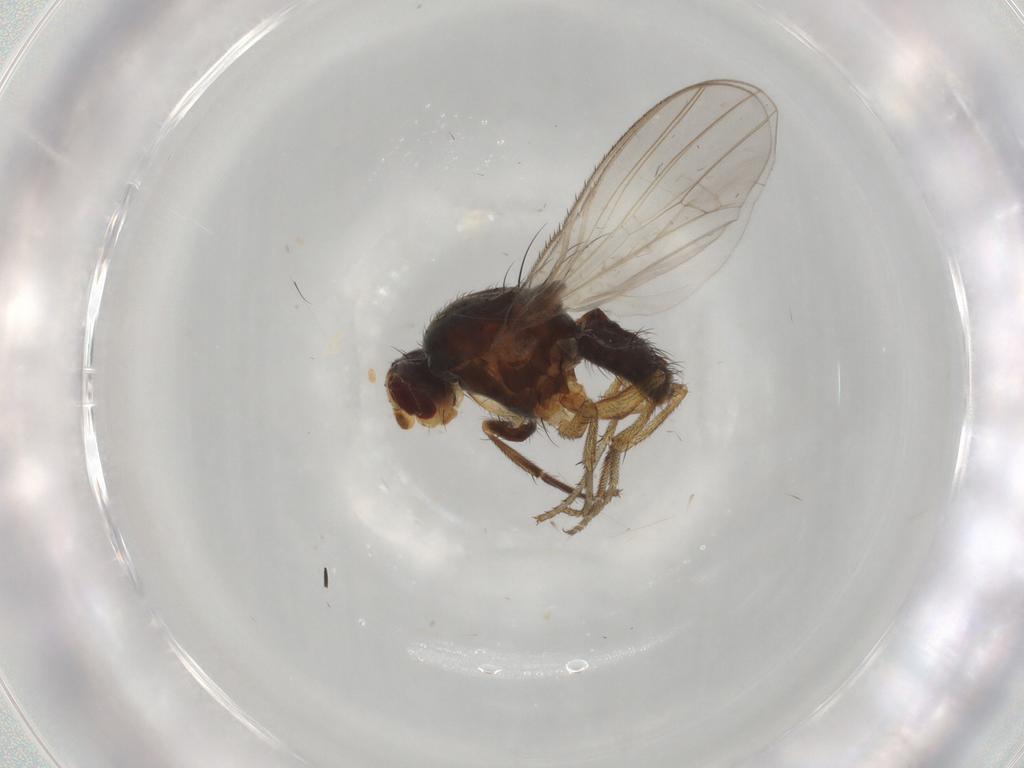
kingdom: Animalia
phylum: Arthropoda
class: Insecta
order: Diptera
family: Heleomyzidae
